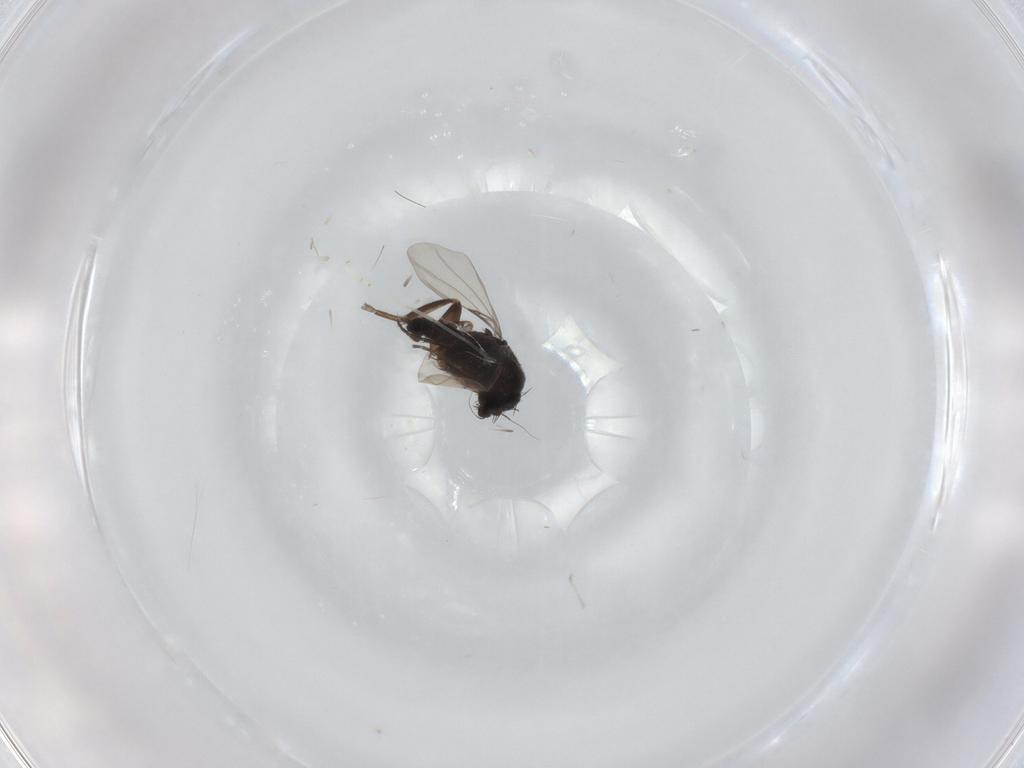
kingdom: Animalia
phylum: Arthropoda
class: Insecta
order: Diptera
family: Phoridae
